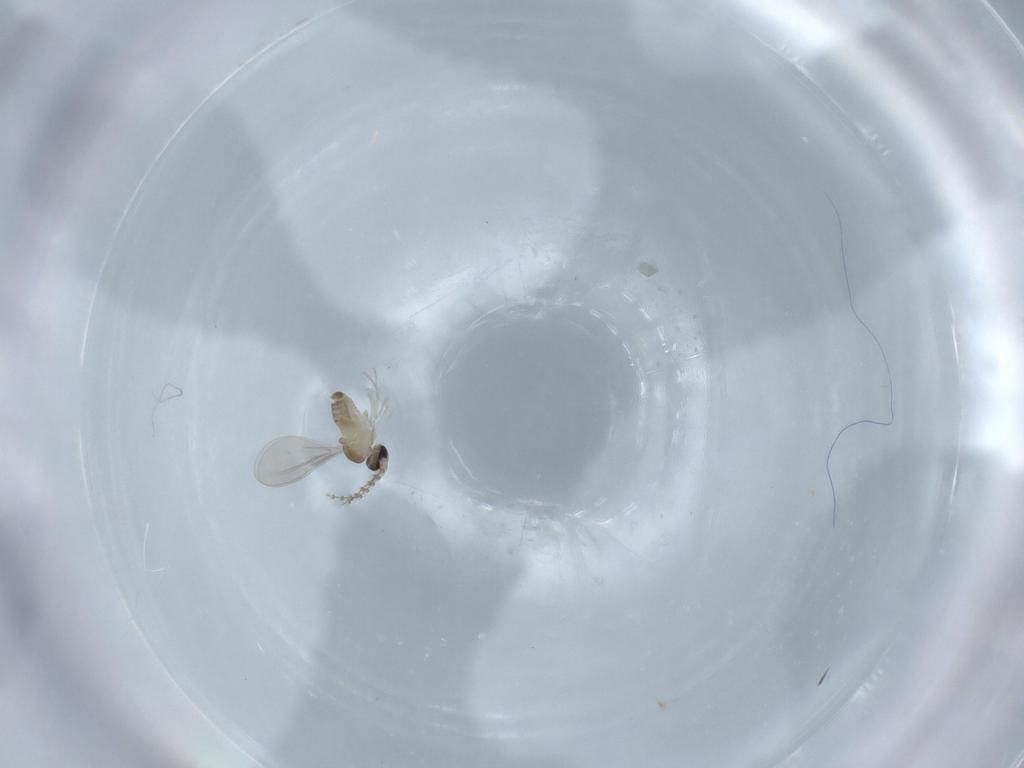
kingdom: Animalia
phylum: Arthropoda
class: Insecta
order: Diptera
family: Cecidomyiidae
